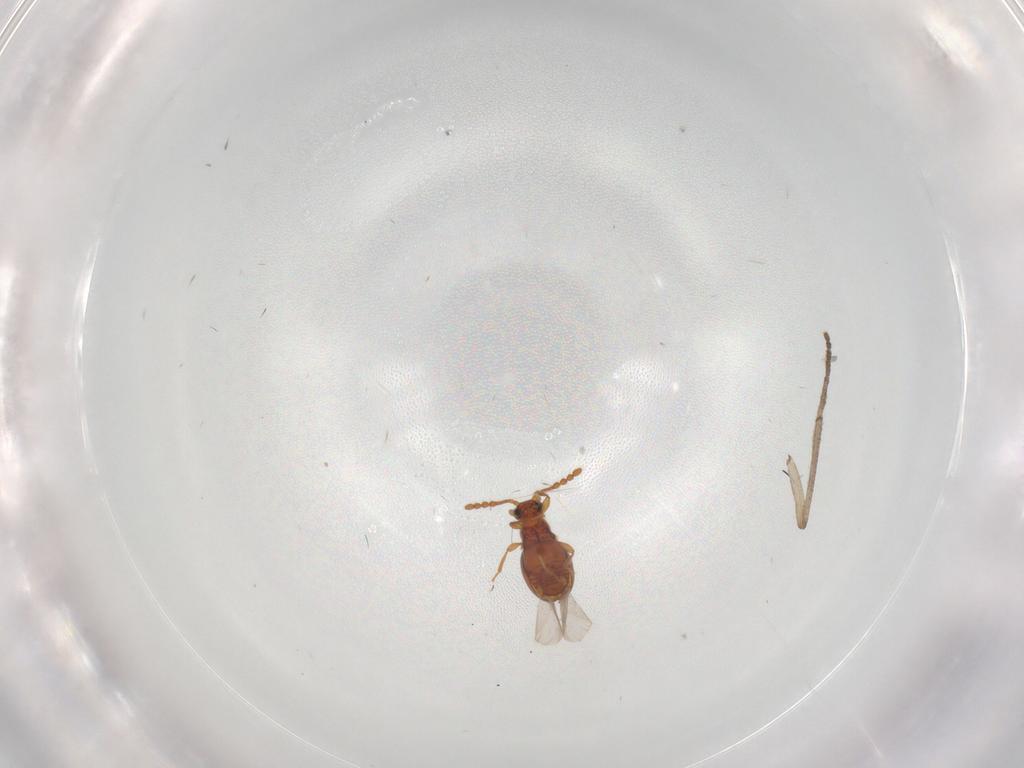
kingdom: Animalia
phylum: Arthropoda
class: Insecta
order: Coleoptera
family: Staphylinidae
